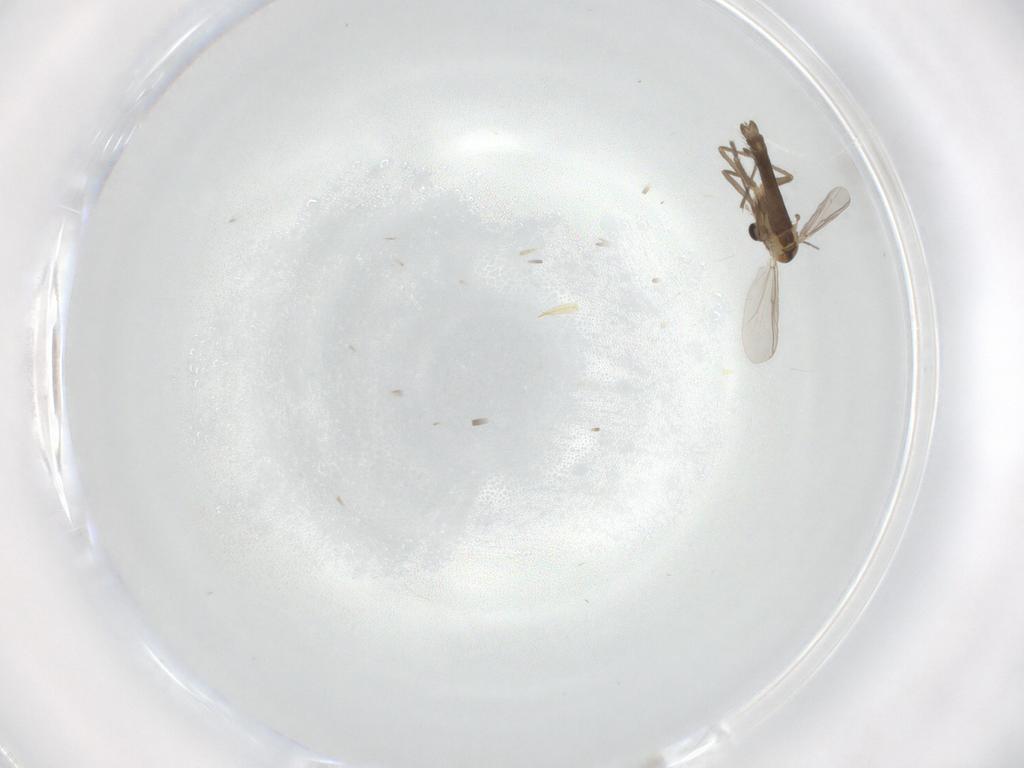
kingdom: Animalia
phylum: Arthropoda
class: Insecta
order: Diptera
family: Chironomidae
